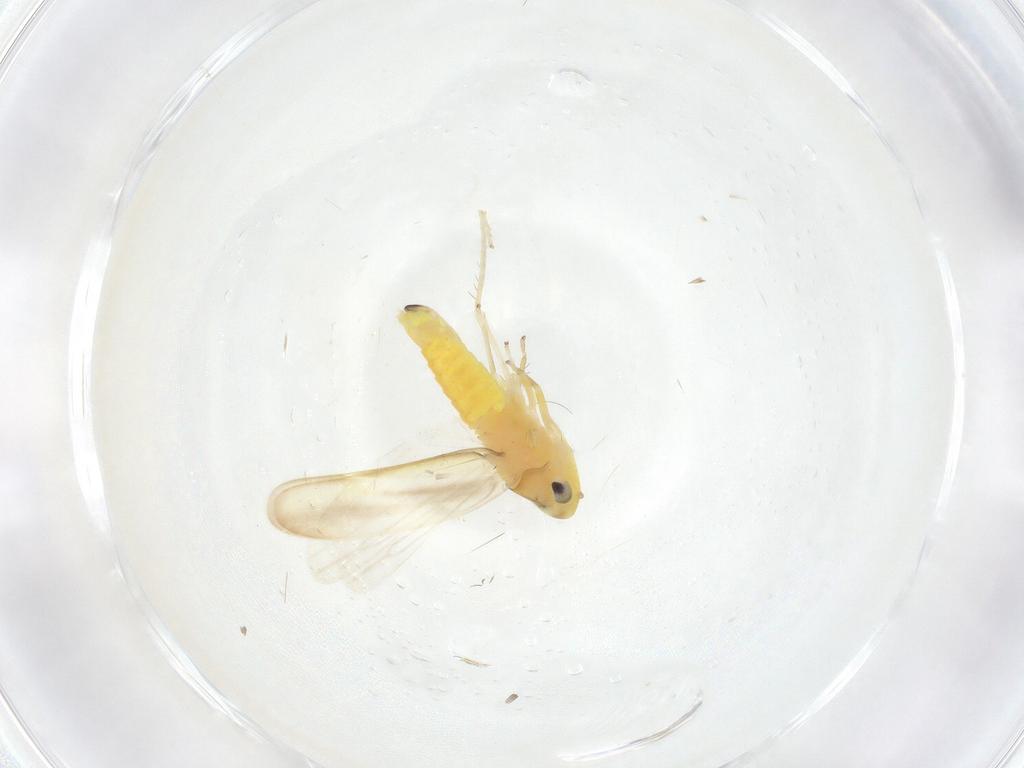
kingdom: Animalia
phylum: Arthropoda
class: Insecta
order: Hemiptera
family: Cicadellidae
